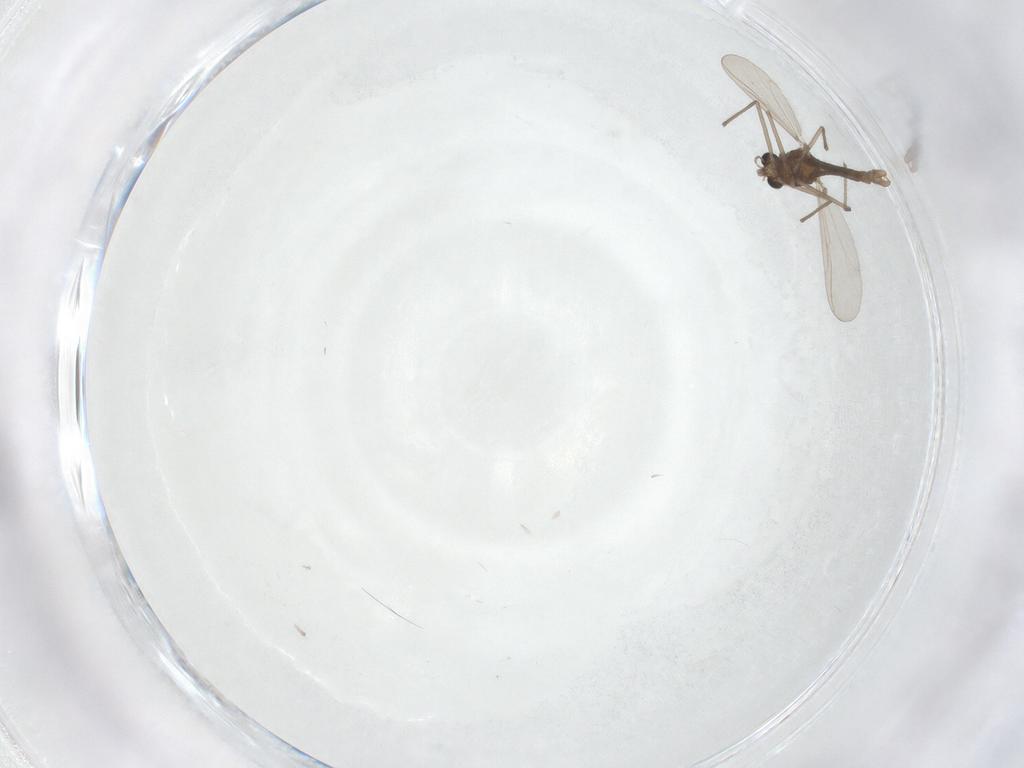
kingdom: Animalia
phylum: Arthropoda
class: Insecta
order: Diptera
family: Chironomidae
